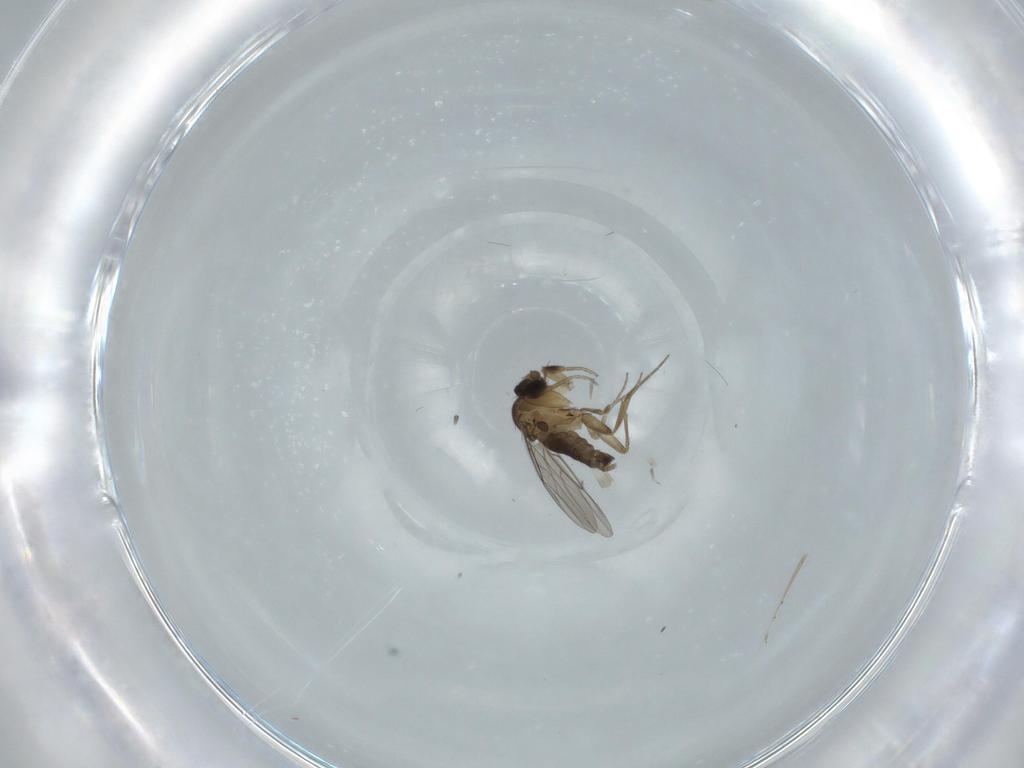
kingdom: Animalia
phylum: Arthropoda
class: Insecta
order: Diptera
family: Phoridae
